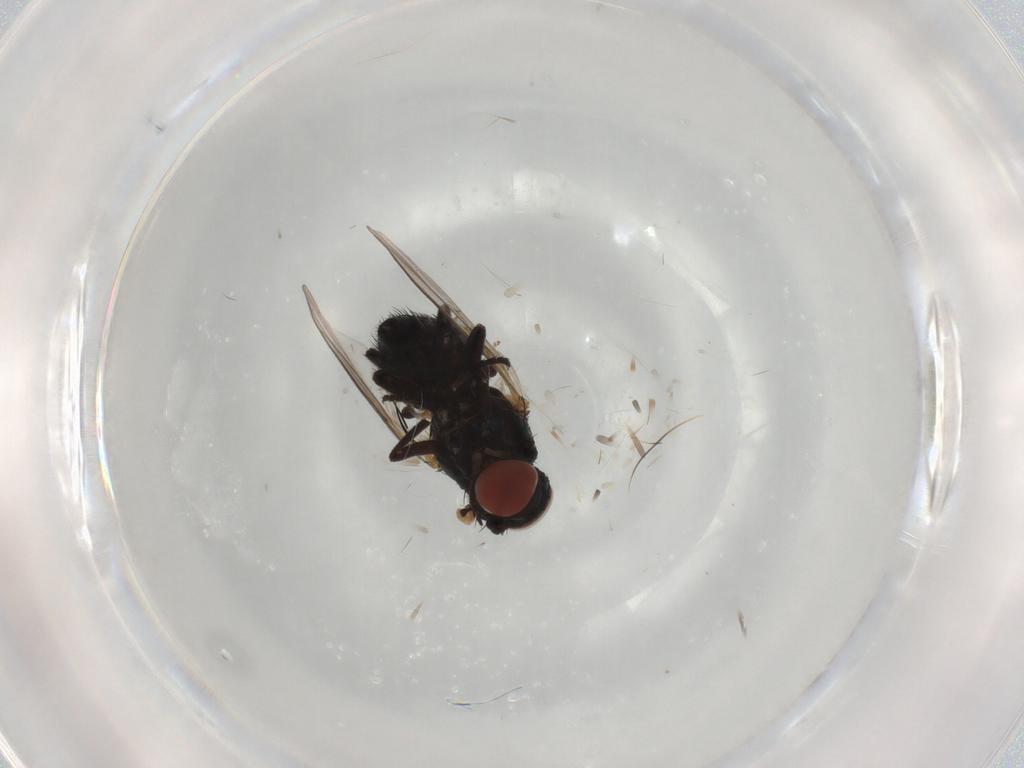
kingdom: Animalia
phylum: Arthropoda
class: Insecta
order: Diptera
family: Agromyzidae
